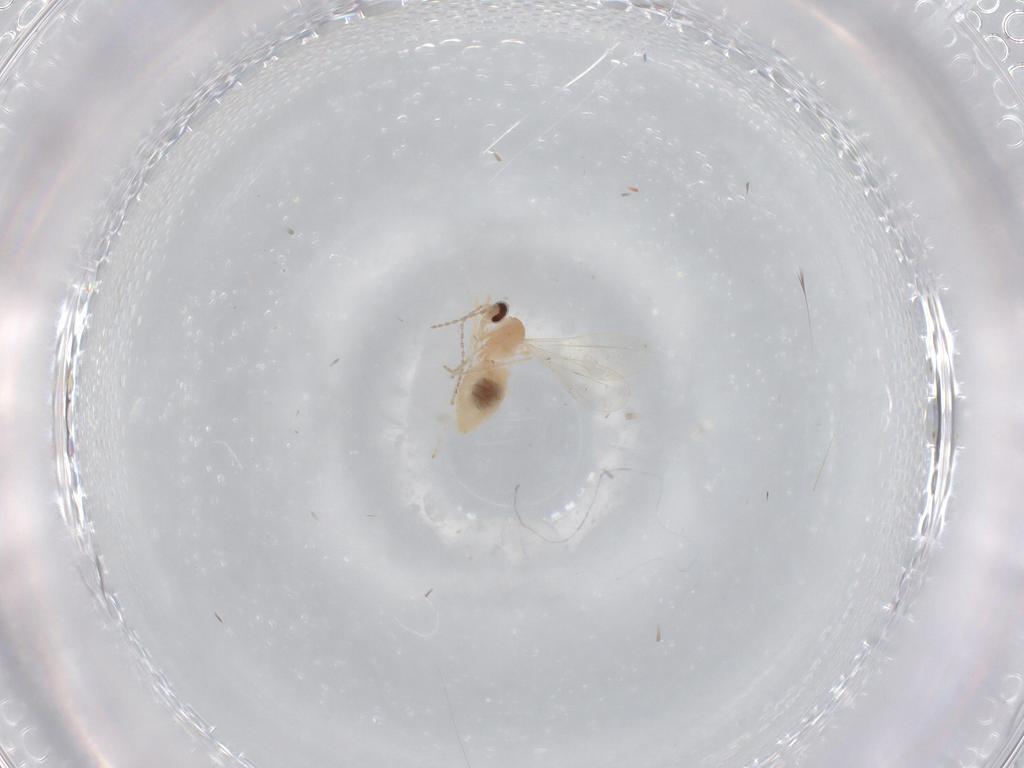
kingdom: Animalia
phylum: Arthropoda
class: Insecta
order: Diptera
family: Cecidomyiidae
